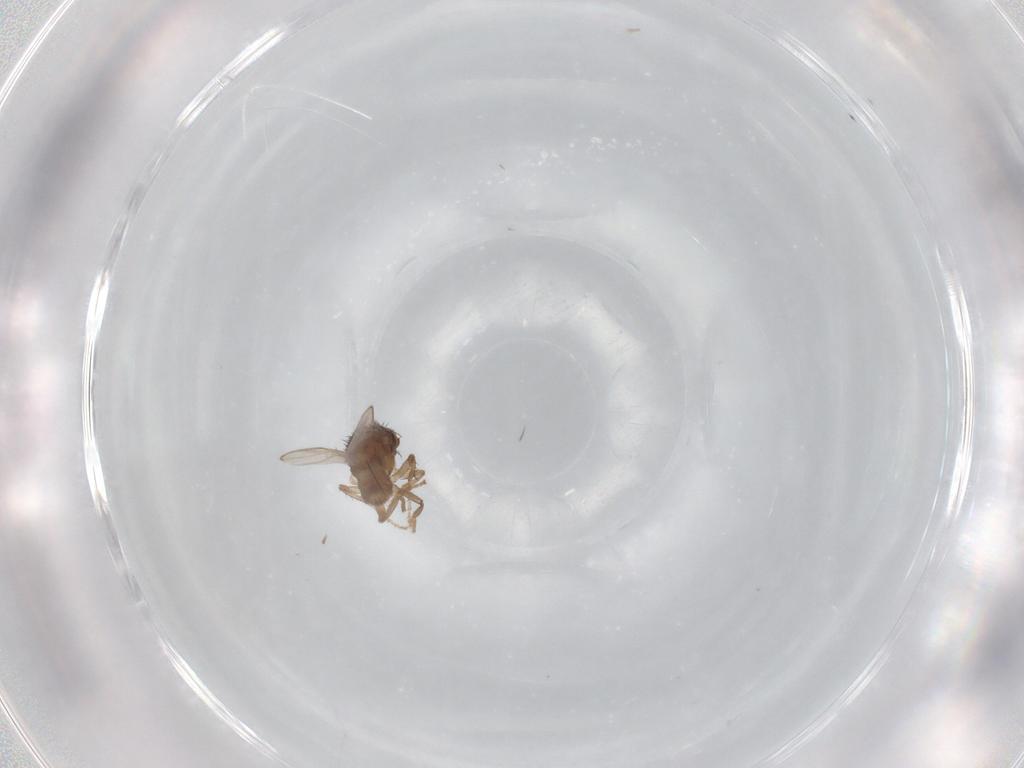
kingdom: Animalia
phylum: Arthropoda
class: Insecta
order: Diptera
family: Sphaeroceridae
